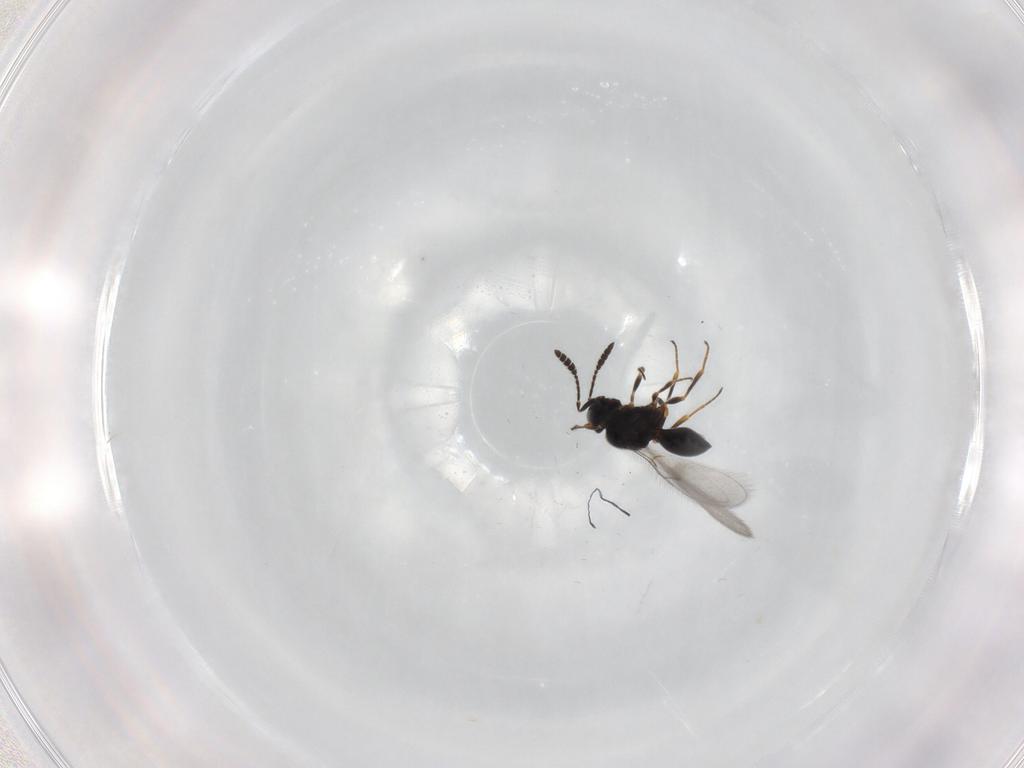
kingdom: Animalia
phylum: Arthropoda
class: Insecta
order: Hymenoptera
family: Scelionidae
